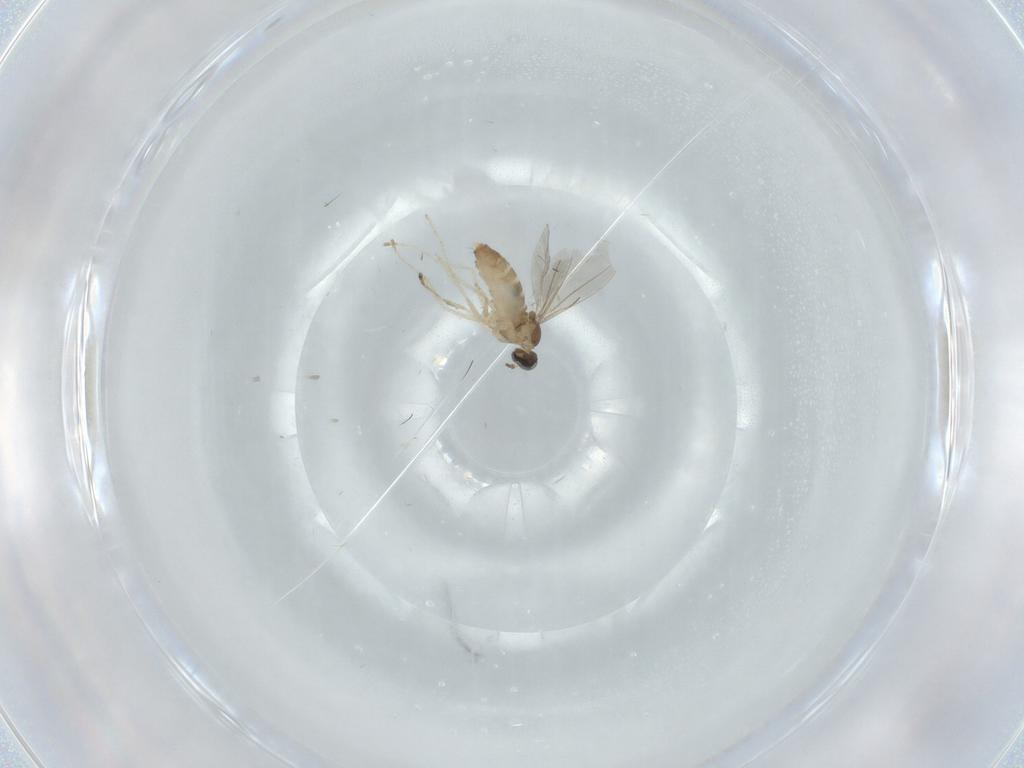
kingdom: Animalia
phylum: Arthropoda
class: Insecta
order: Diptera
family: Cecidomyiidae
